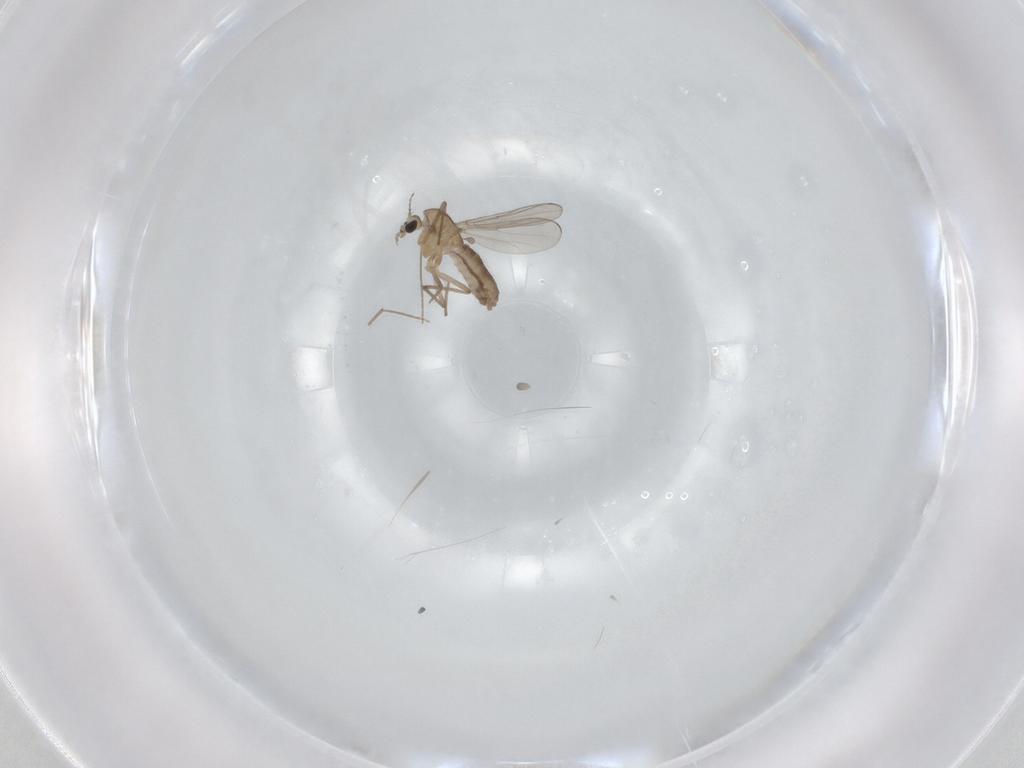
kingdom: Animalia
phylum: Arthropoda
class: Insecta
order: Diptera
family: Chironomidae
